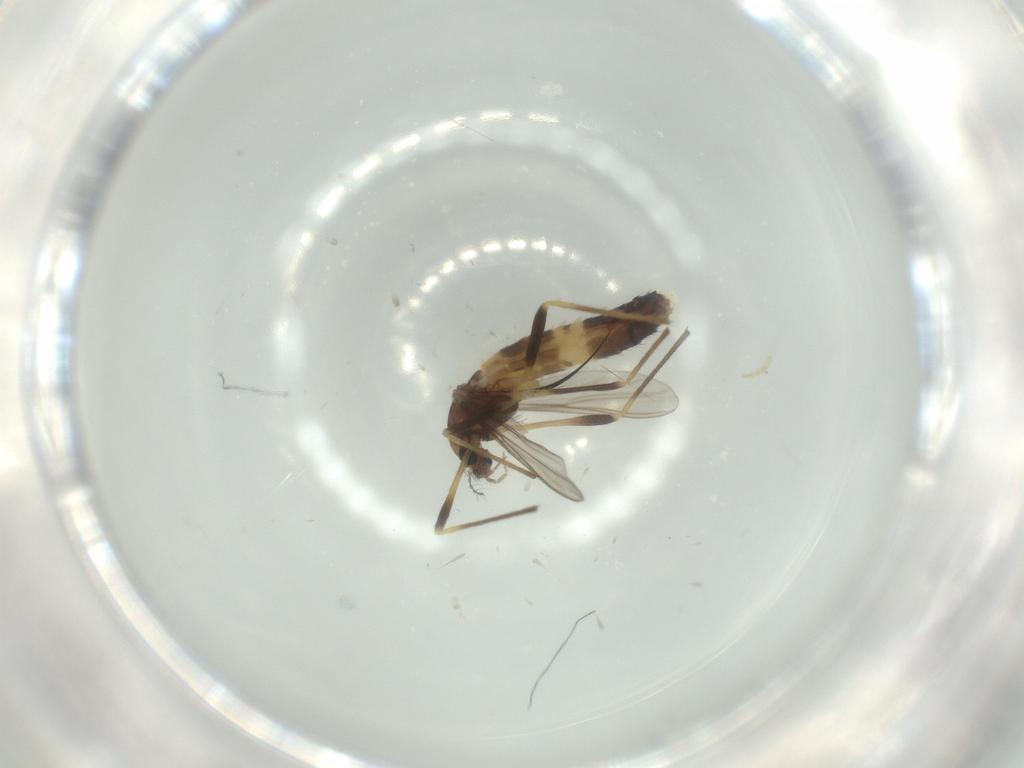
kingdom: Animalia
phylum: Arthropoda
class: Insecta
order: Diptera
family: Chironomidae
